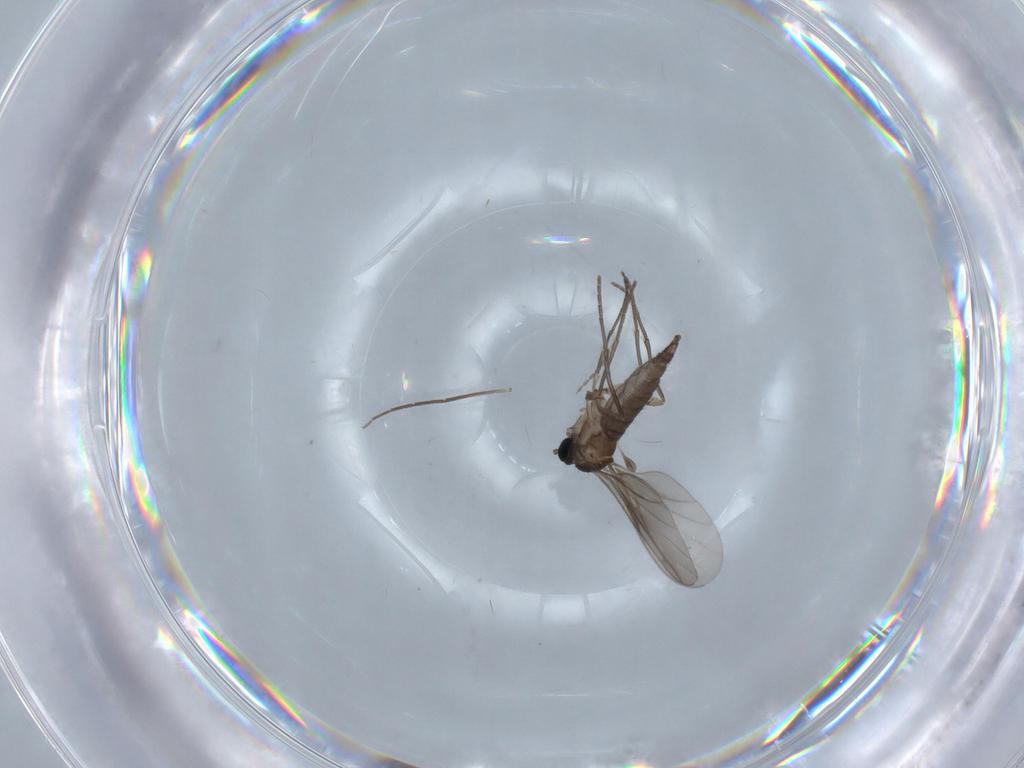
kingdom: Animalia
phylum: Arthropoda
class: Insecta
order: Diptera
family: Sciaridae
